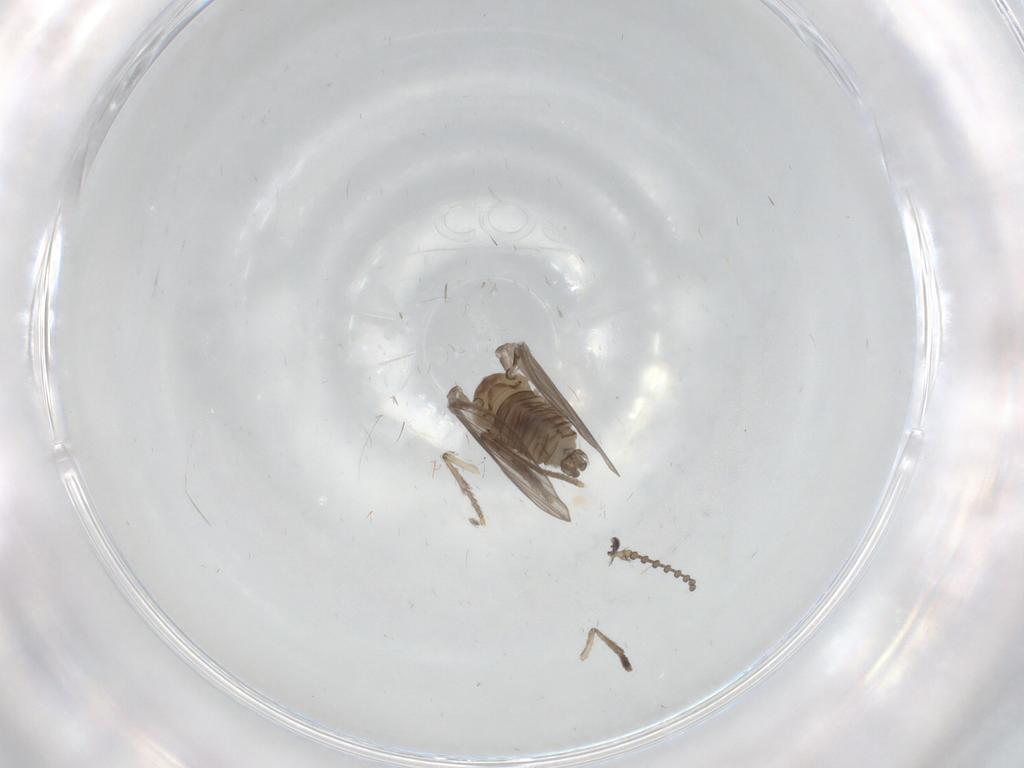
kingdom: Animalia
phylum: Arthropoda
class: Insecta
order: Diptera
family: Psychodidae
